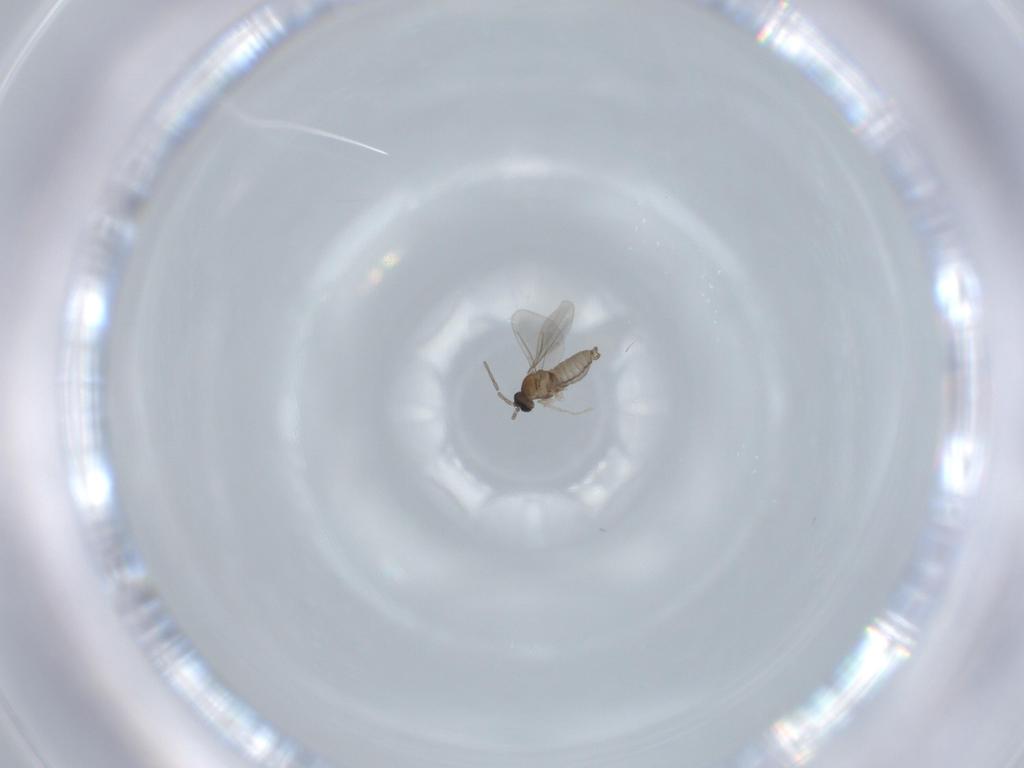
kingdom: Animalia
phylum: Arthropoda
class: Insecta
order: Diptera
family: Cecidomyiidae
